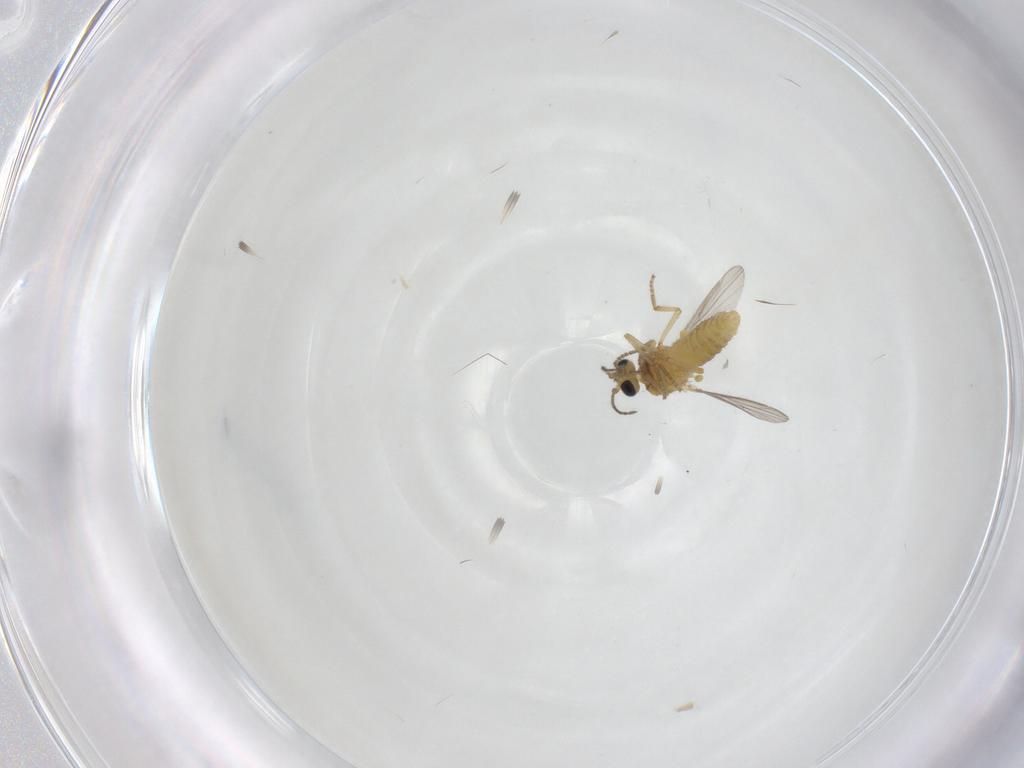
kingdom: Animalia
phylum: Arthropoda
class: Insecta
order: Diptera
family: Ceratopogonidae
